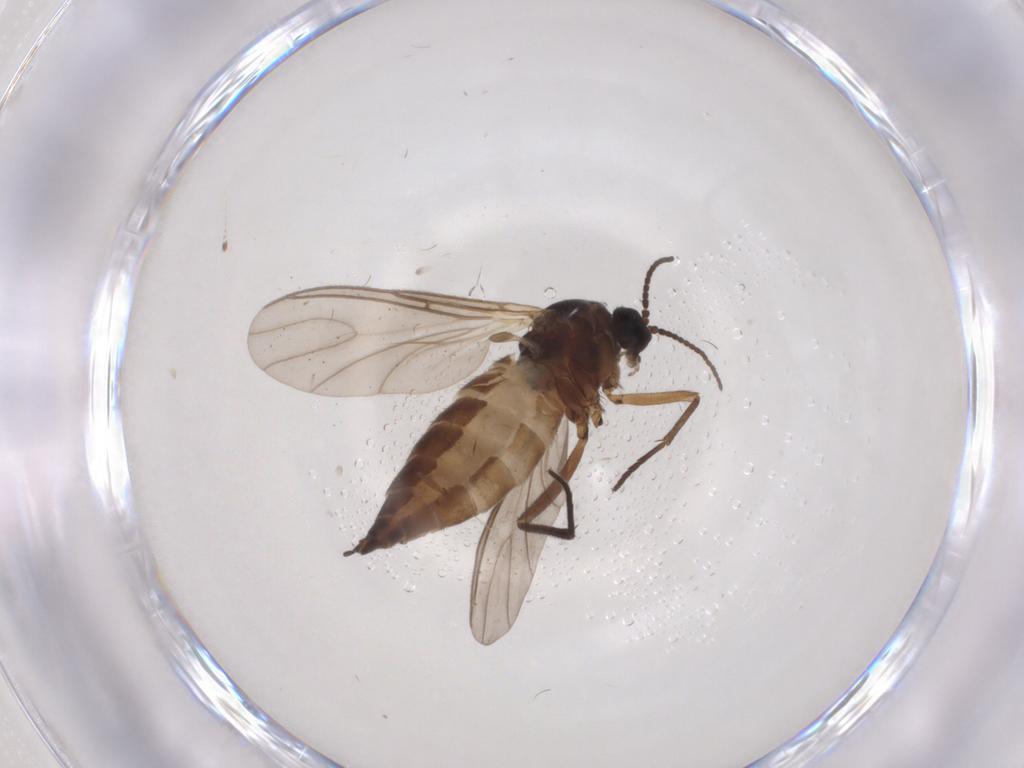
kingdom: Animalia
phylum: Arthropoda
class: Insecta
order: Diptera
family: Sciaridae
